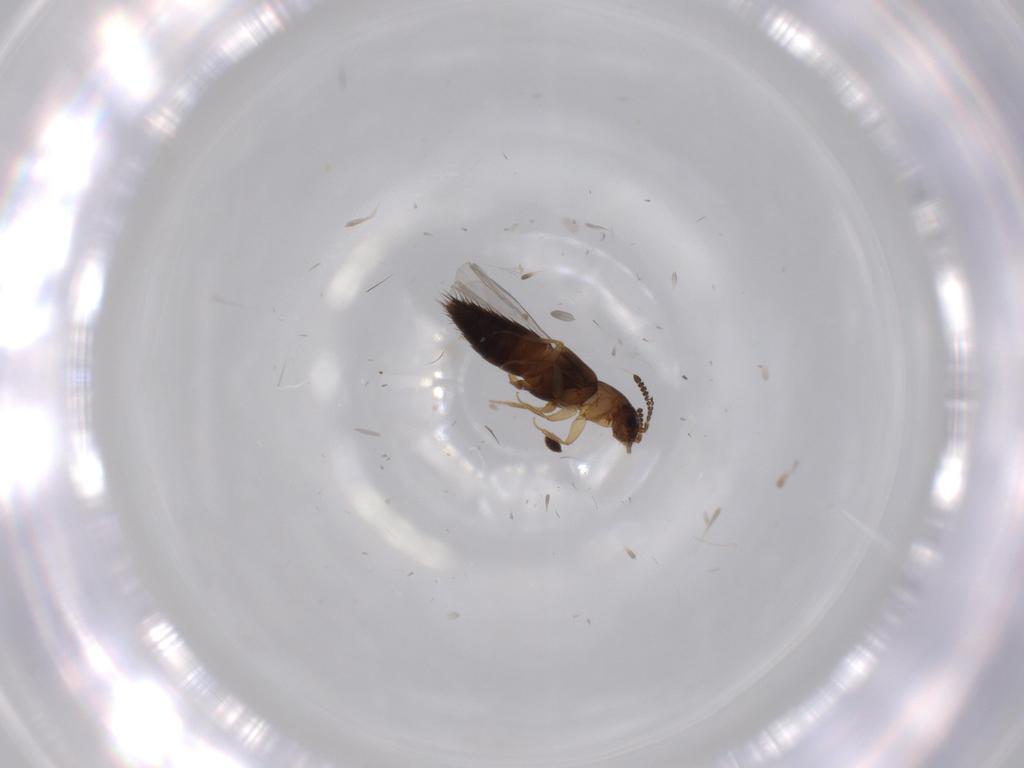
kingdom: Animalia
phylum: Arthropoda
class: Insecta
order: Coleoptera
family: Staphylinidae
